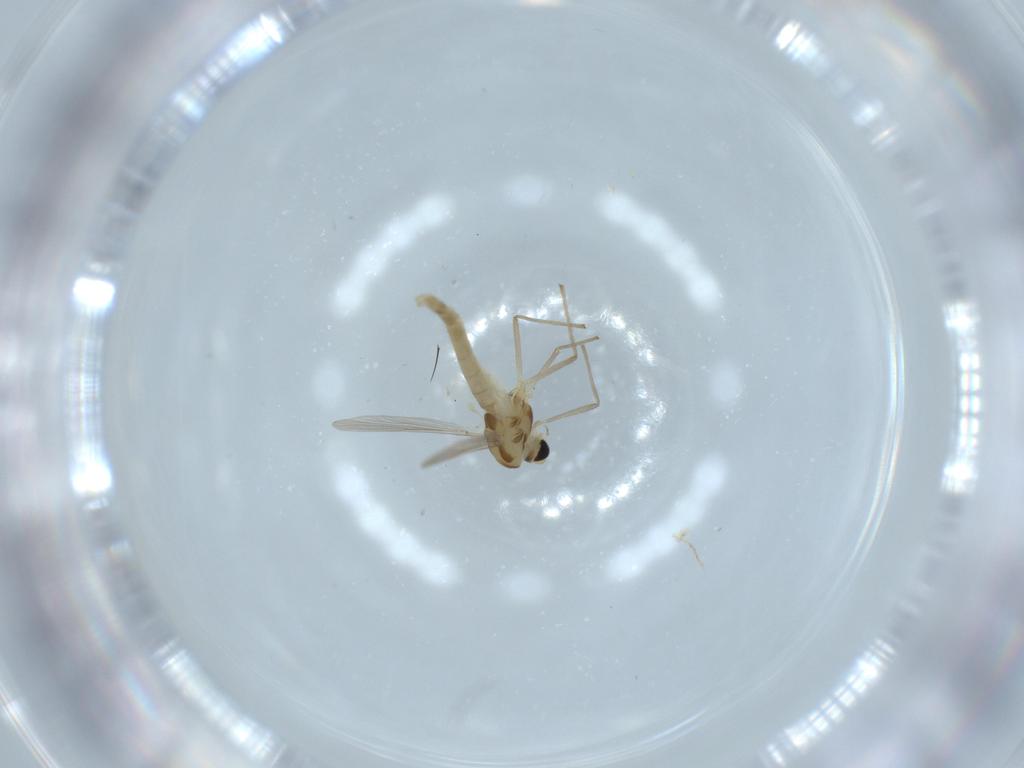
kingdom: Animalia
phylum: Arthropoda
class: Insecta
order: Diptera
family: Chironomidae
